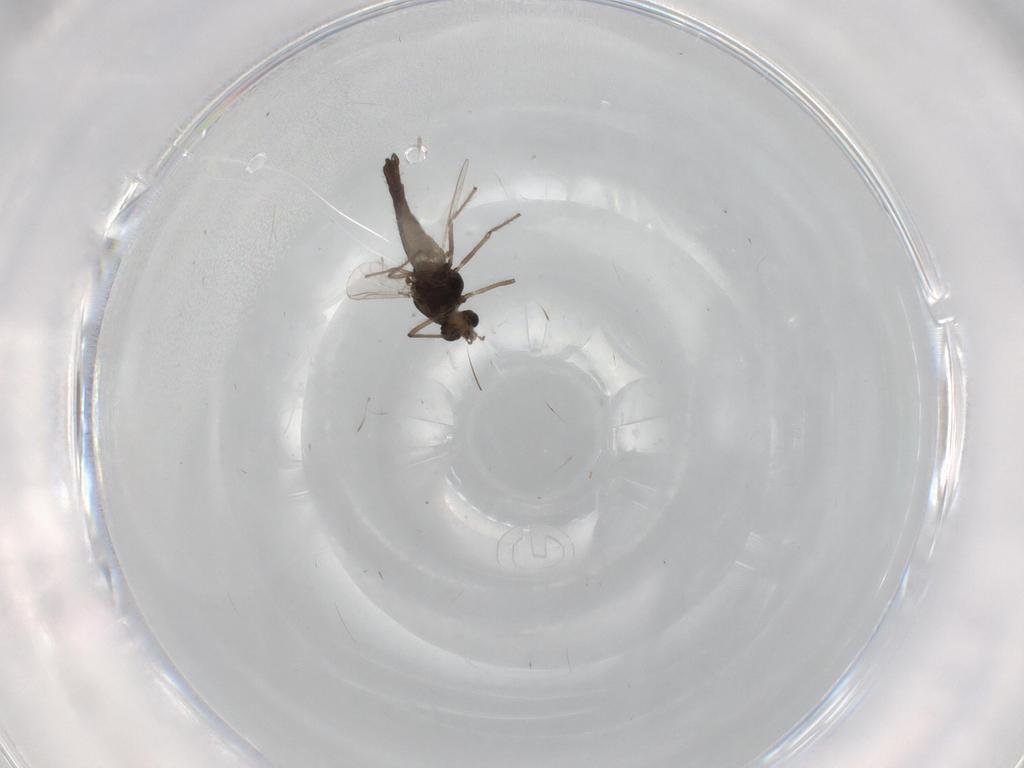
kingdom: Animalia
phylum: Arthropoda
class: Insecta
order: Diptera
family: Chironomidae
